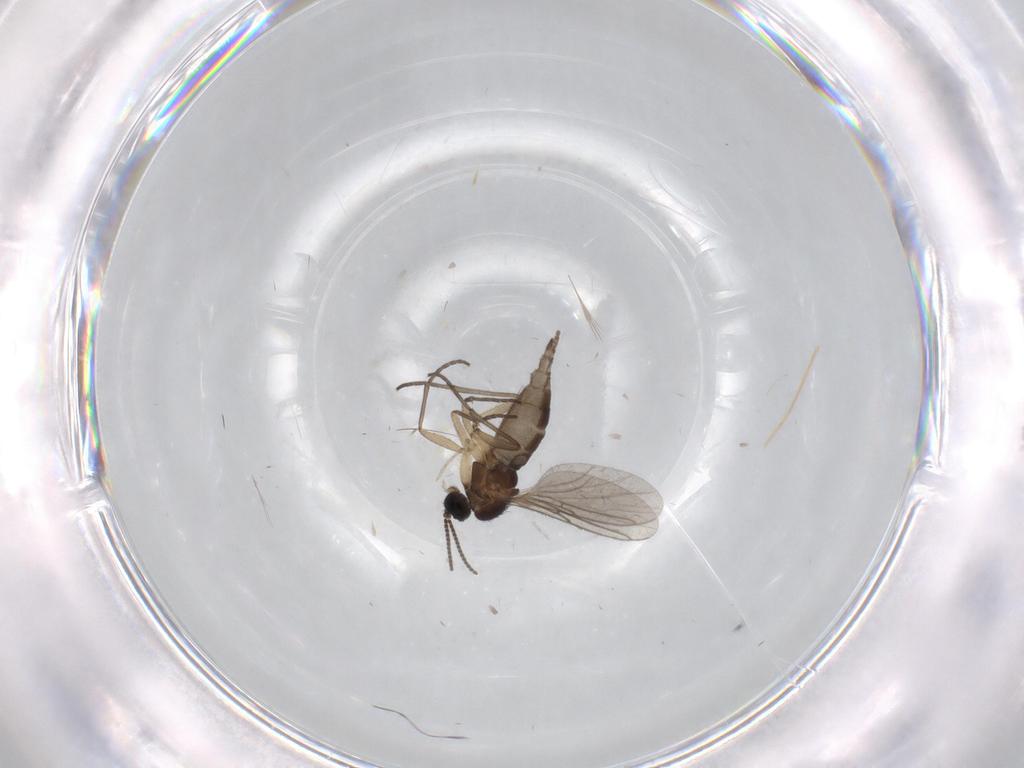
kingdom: Animalia
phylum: Arthropoda
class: Insecta
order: Diptera
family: Sciaridae
